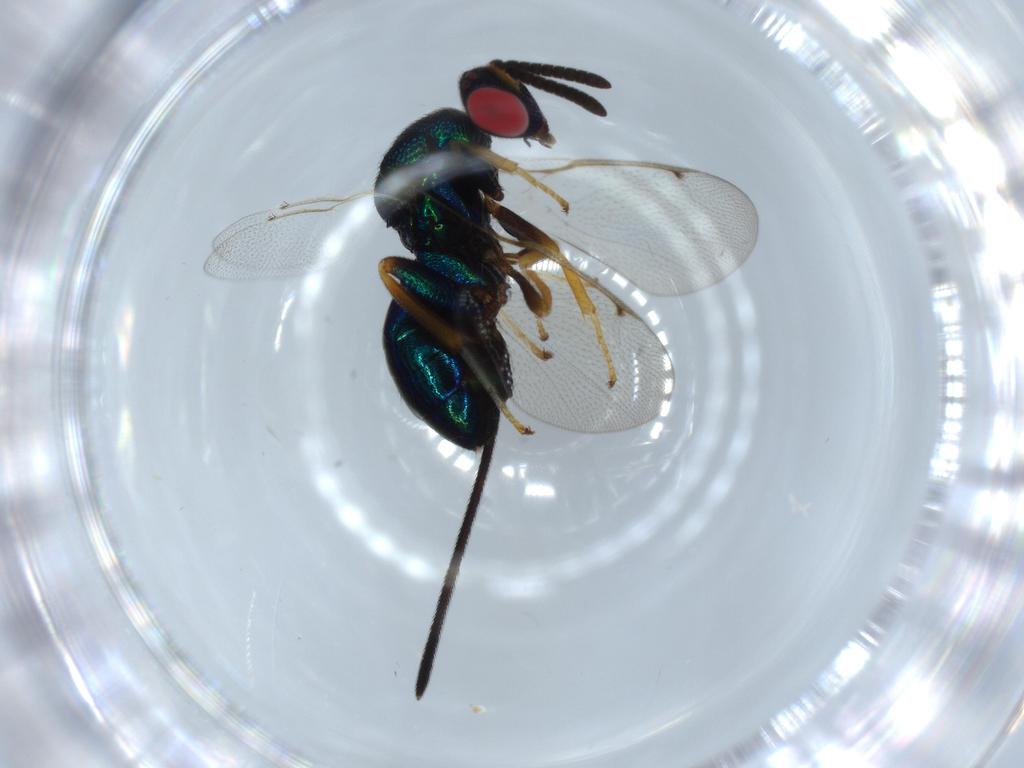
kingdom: Animalia
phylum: Arthropoda
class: Insecta
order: Hymenoptera
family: Torymidae
